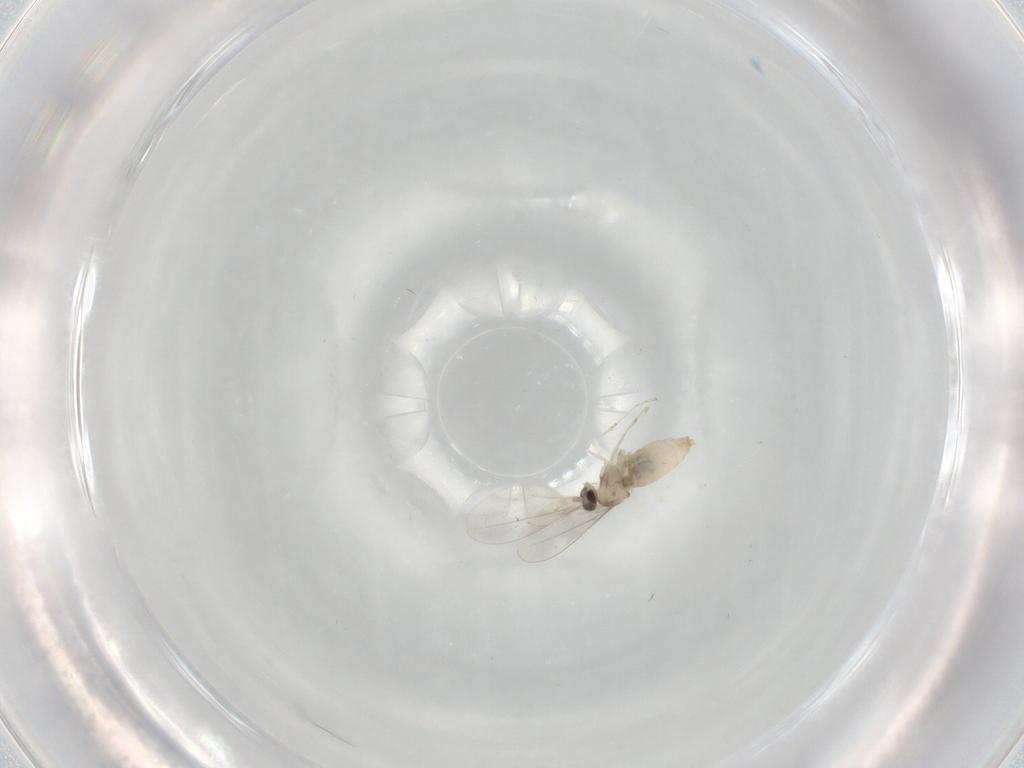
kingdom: Animalia
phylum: Arthropoda
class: Insecta
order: Diptera
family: Cecidomyiidae
